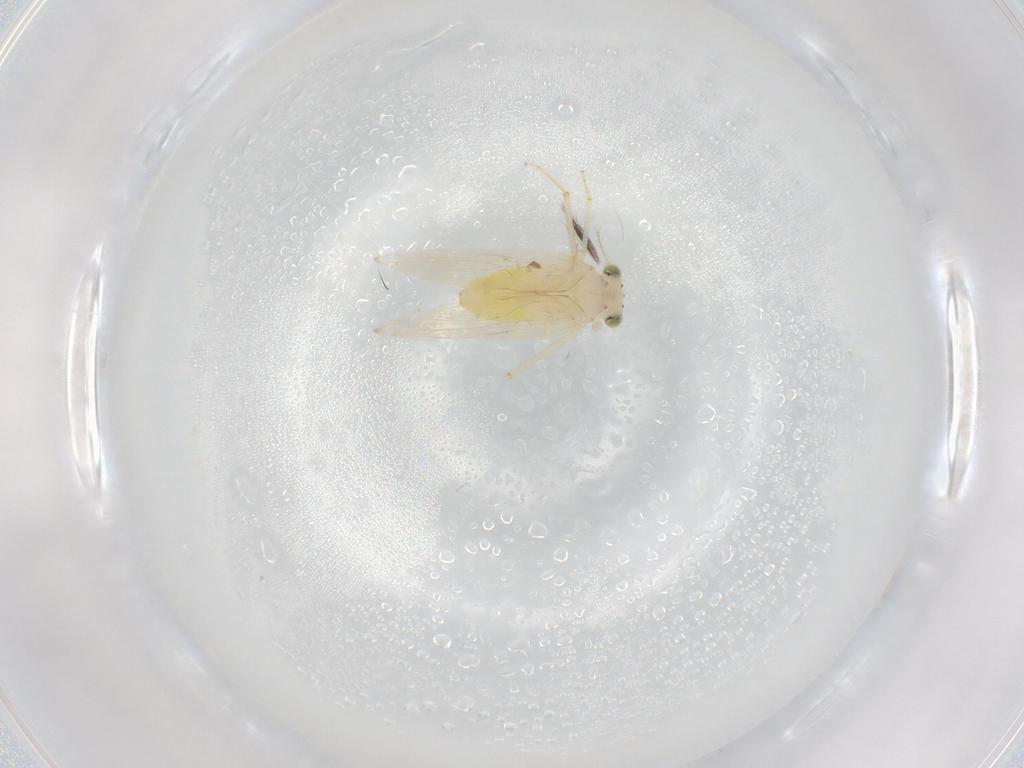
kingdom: Animalia
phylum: Arthropoda
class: Insecta
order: Psocodea
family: Lepidopsocidae
